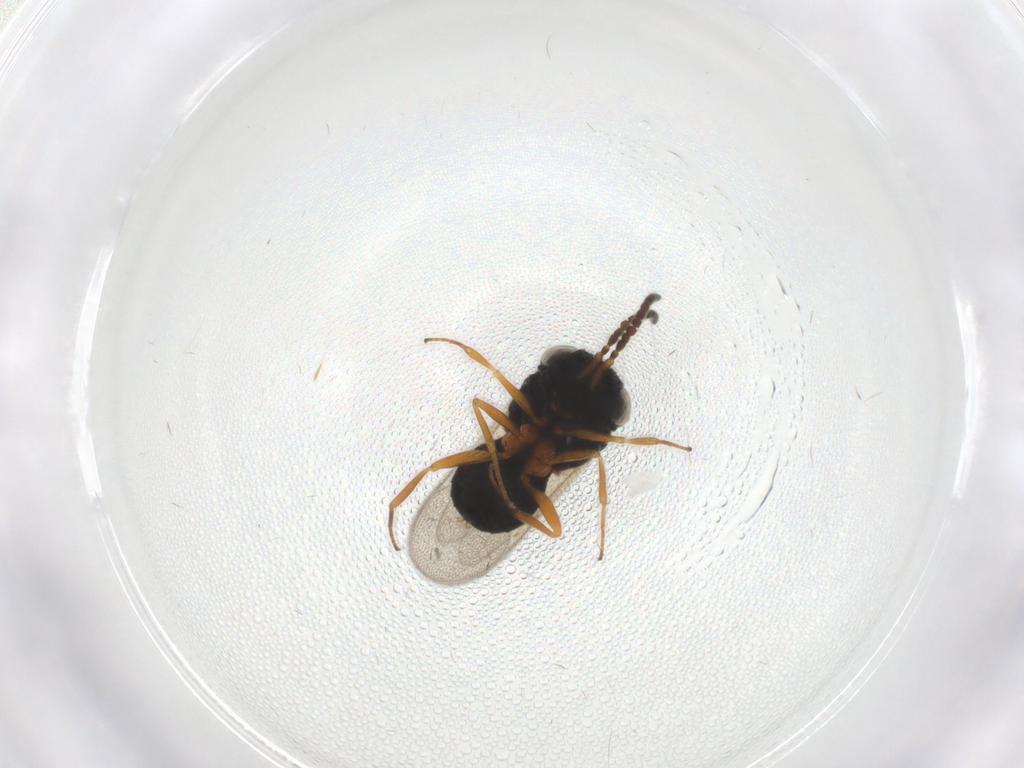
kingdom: Animalia
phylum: Arthropoda
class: Insecta
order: Hymenoptera
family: Scelionidae
